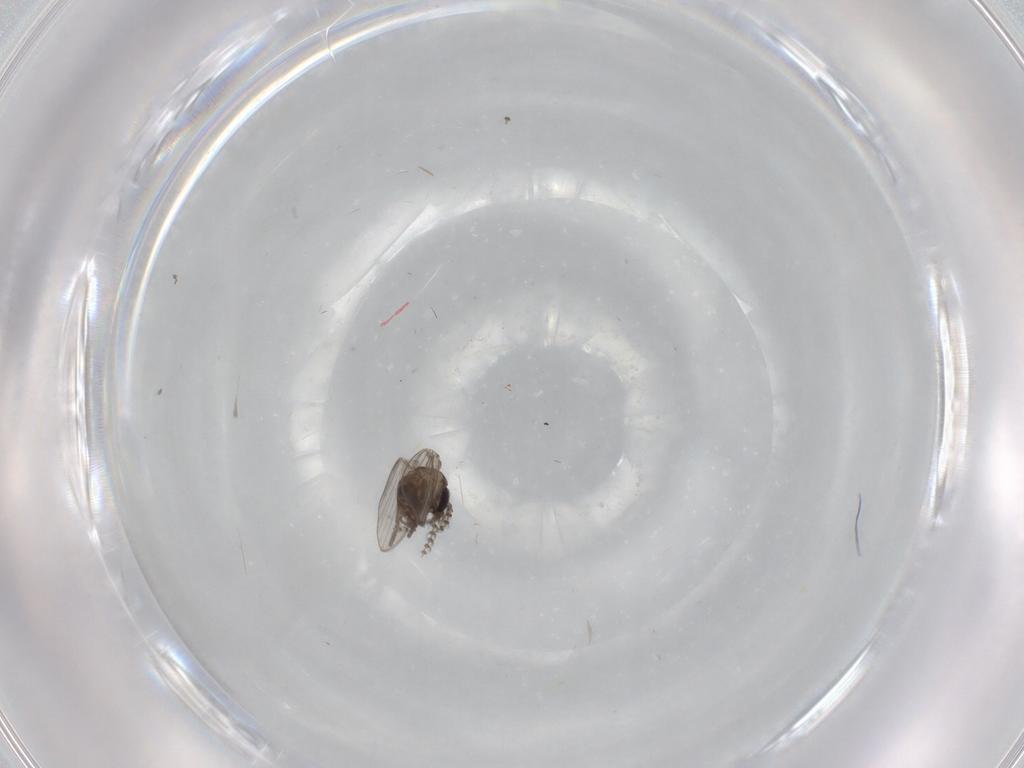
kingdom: Animalia
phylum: Arthropoda
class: Insecta
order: Diptera
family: Psychodidae
